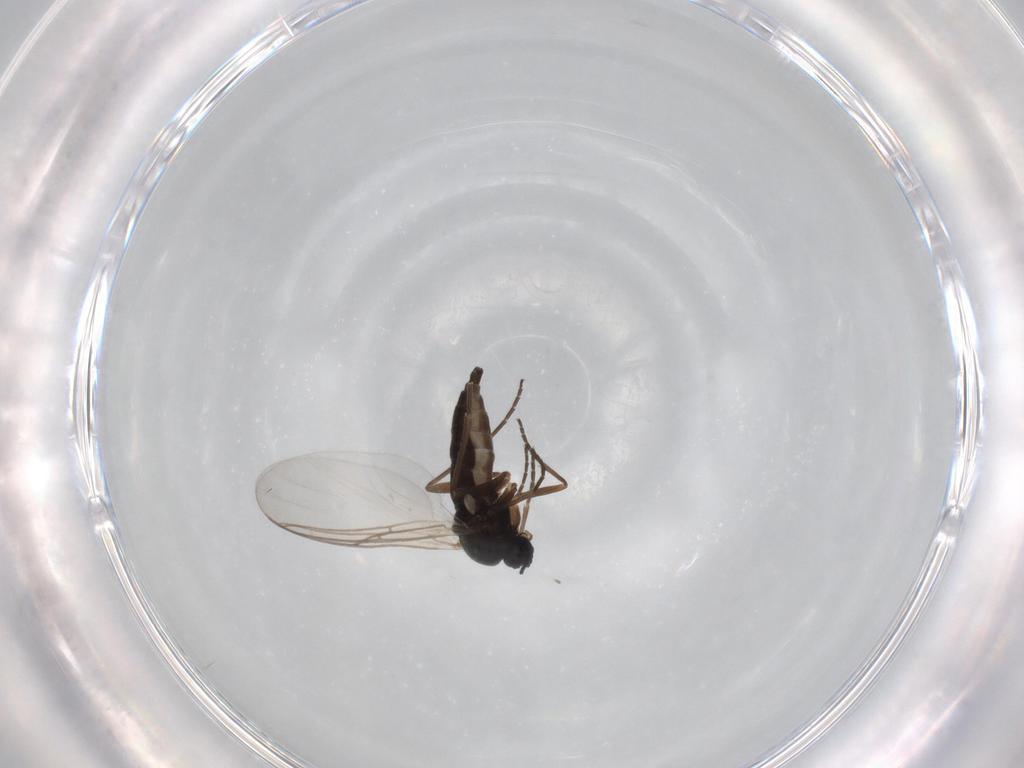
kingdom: Animalia
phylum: Arthropoda
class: Insecta
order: Diptera
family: Sciaridae
